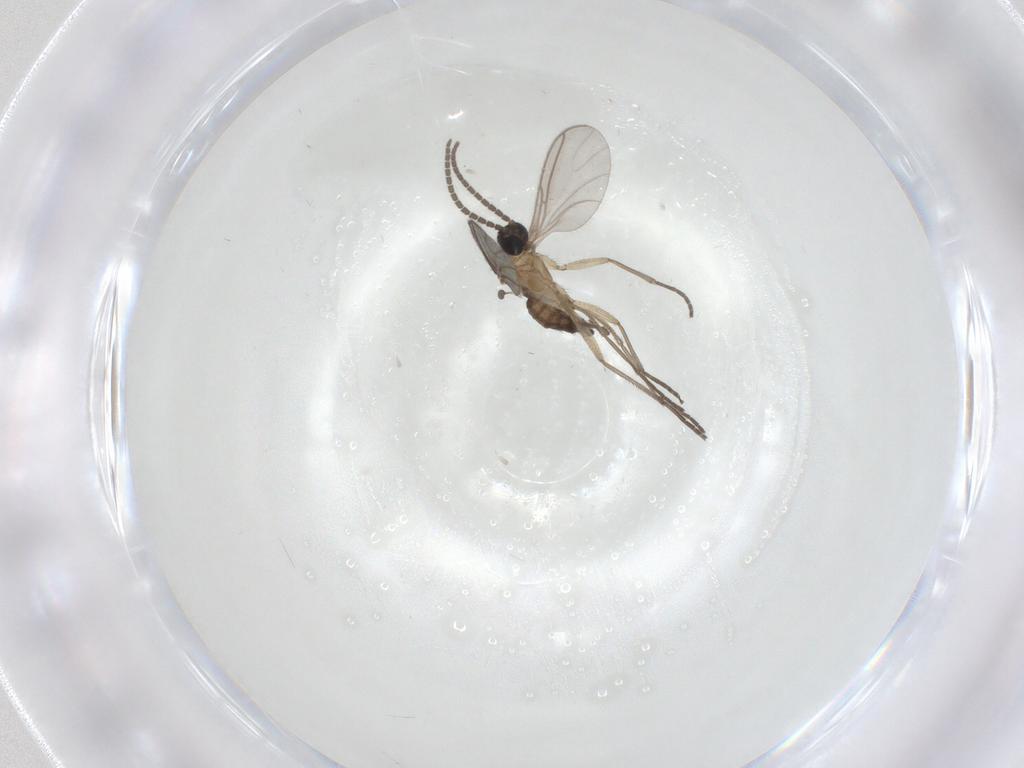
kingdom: Animalia
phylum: Arthropoda
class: Insecta
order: Diptera
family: Sciaridae
